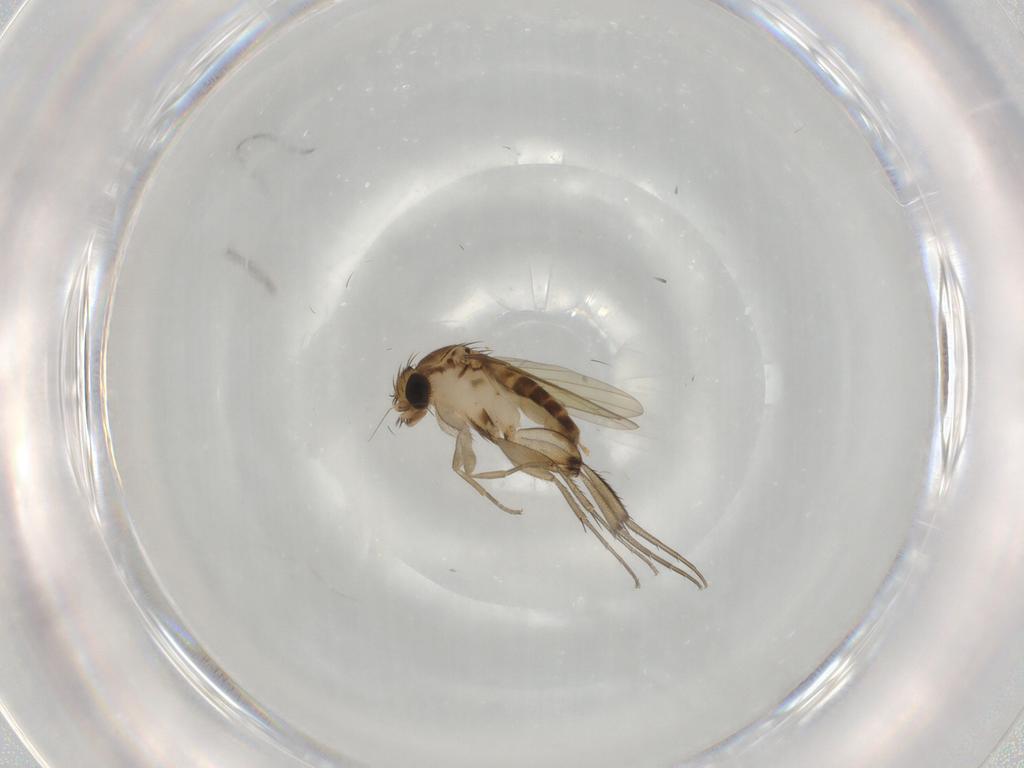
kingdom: Animalia
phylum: Arthropoda
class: Insecta
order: Diptera
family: Phoridae
